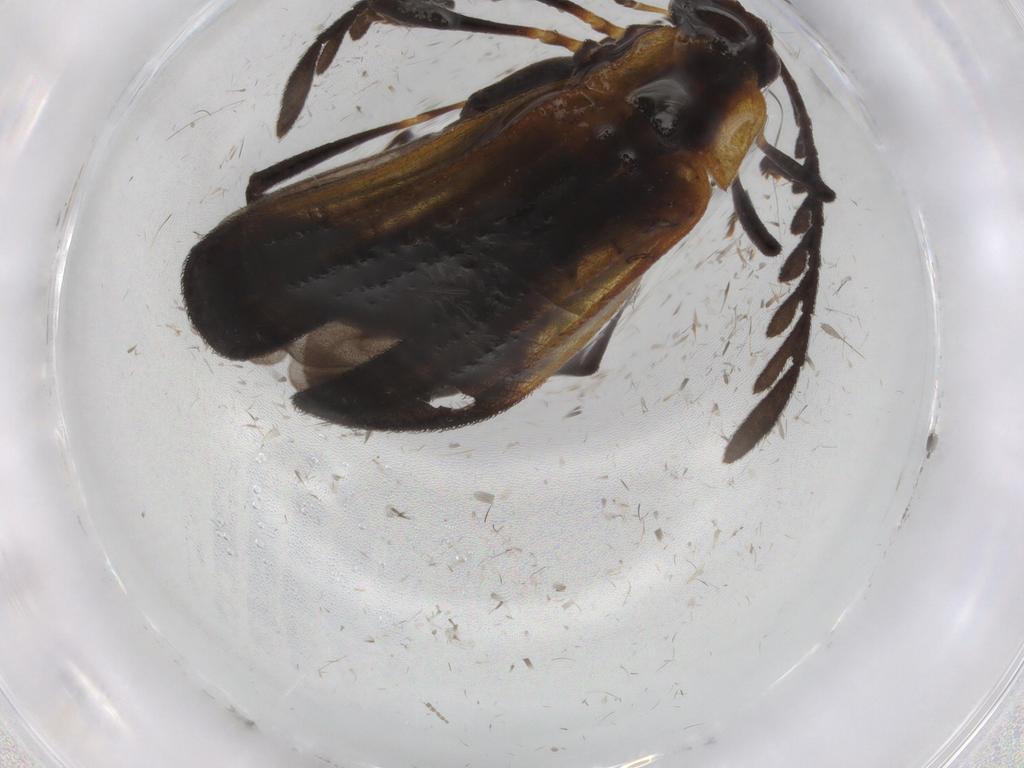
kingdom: Animalia
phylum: Arthropoda
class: Insecta
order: Coleoptera
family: Lycidae
